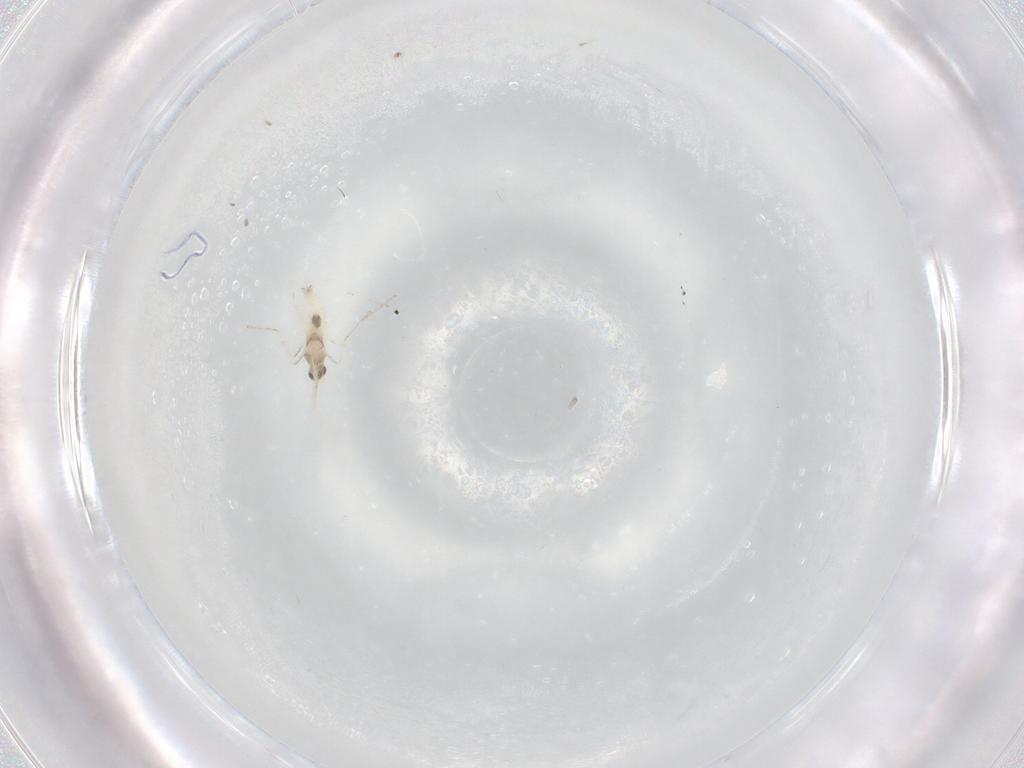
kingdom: Animalia
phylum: Arthropoda
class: Insecta
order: Diptera
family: Cecidomyiidae
